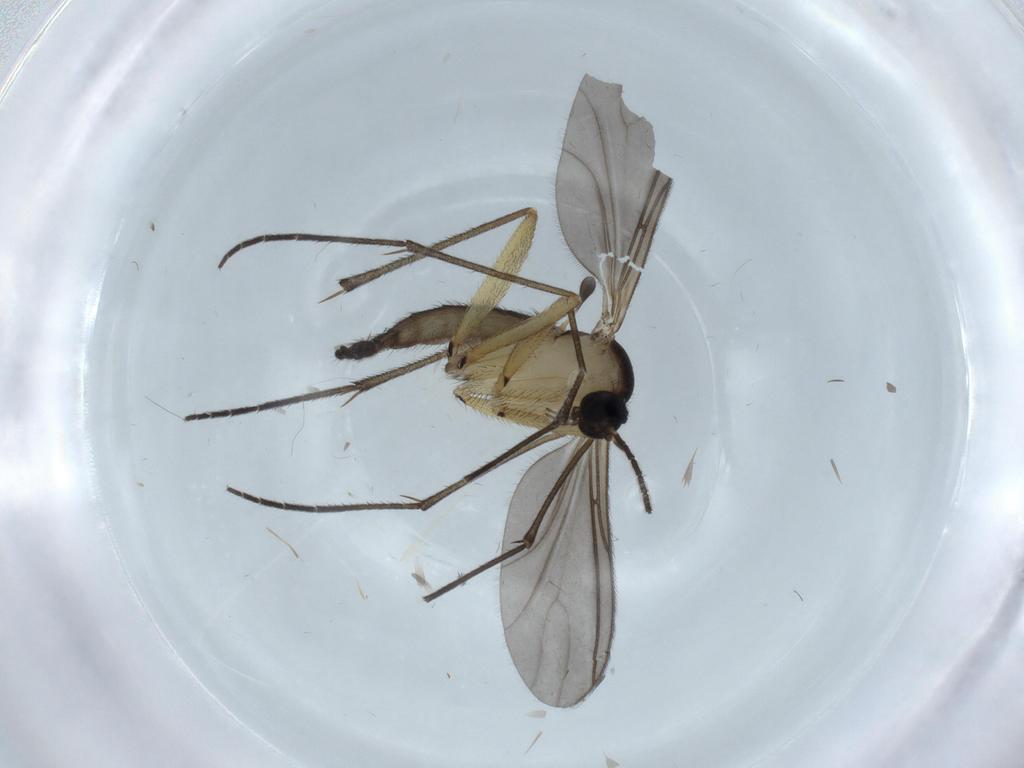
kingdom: Animalia
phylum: Arthropoda
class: Insecta
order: Diptera
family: Sciaridae
